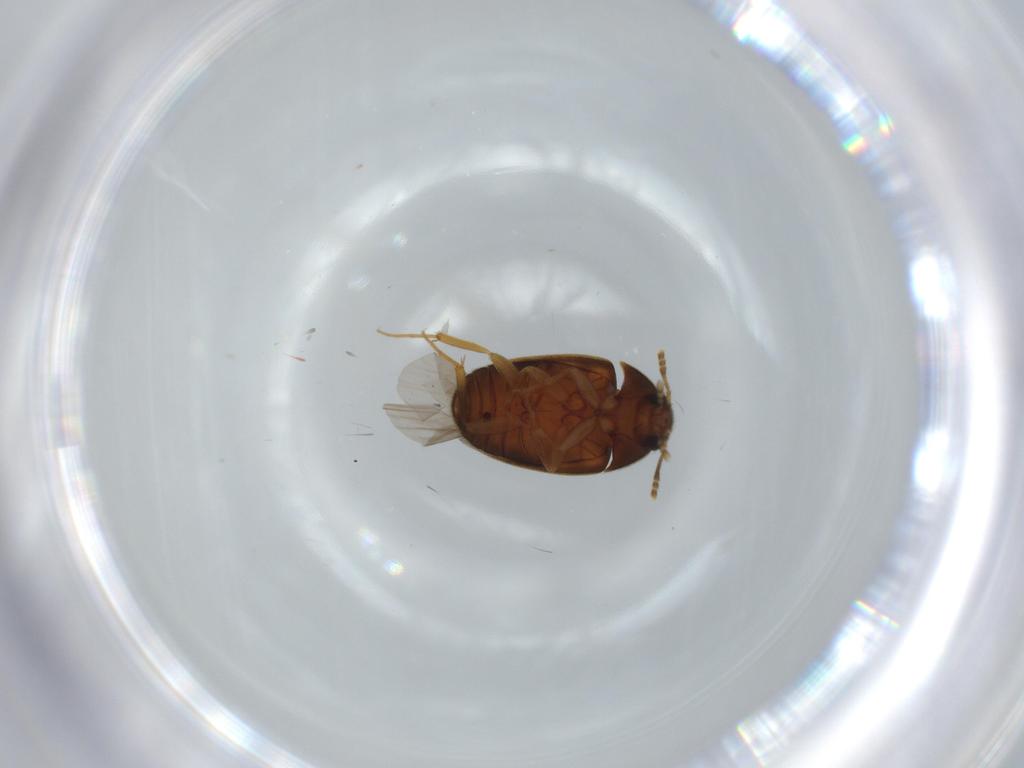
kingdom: Animalia
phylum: Arthropoda
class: Insecta
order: Coleoptera
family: Mycetophagidae
